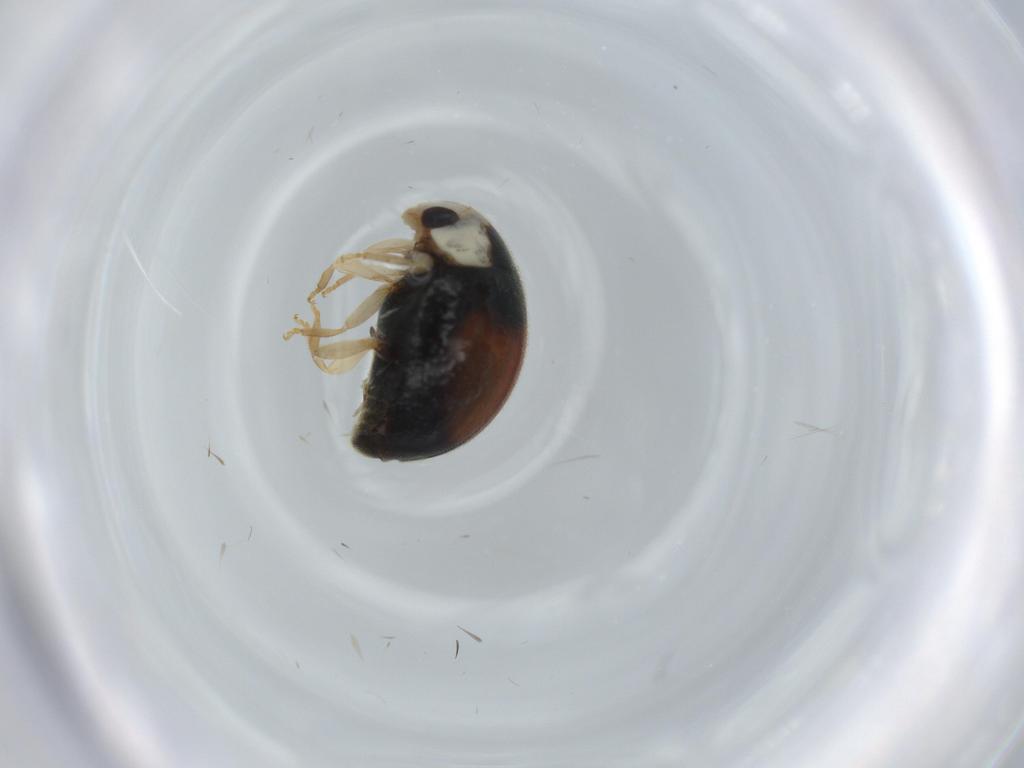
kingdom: Animalia
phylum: Arthropoda
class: Insecta
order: Coleoptera
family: Coccinellidae
